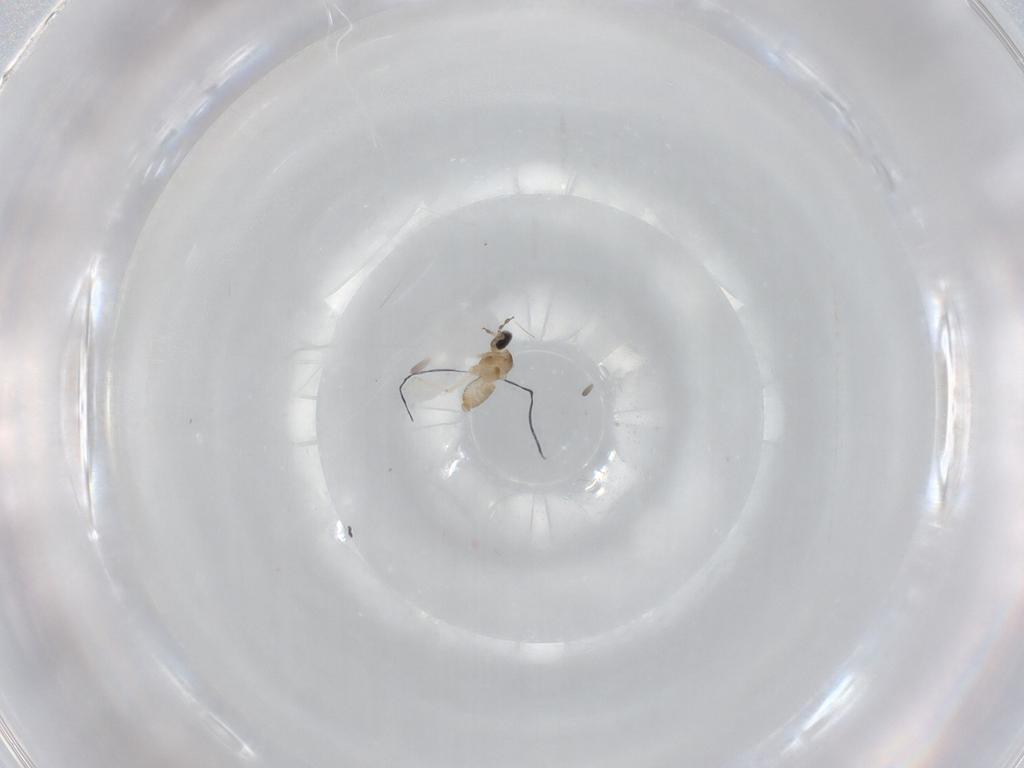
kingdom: Animalia
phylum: Arthropoda
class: Insecta
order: Diptera
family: Cecidomyiidae
